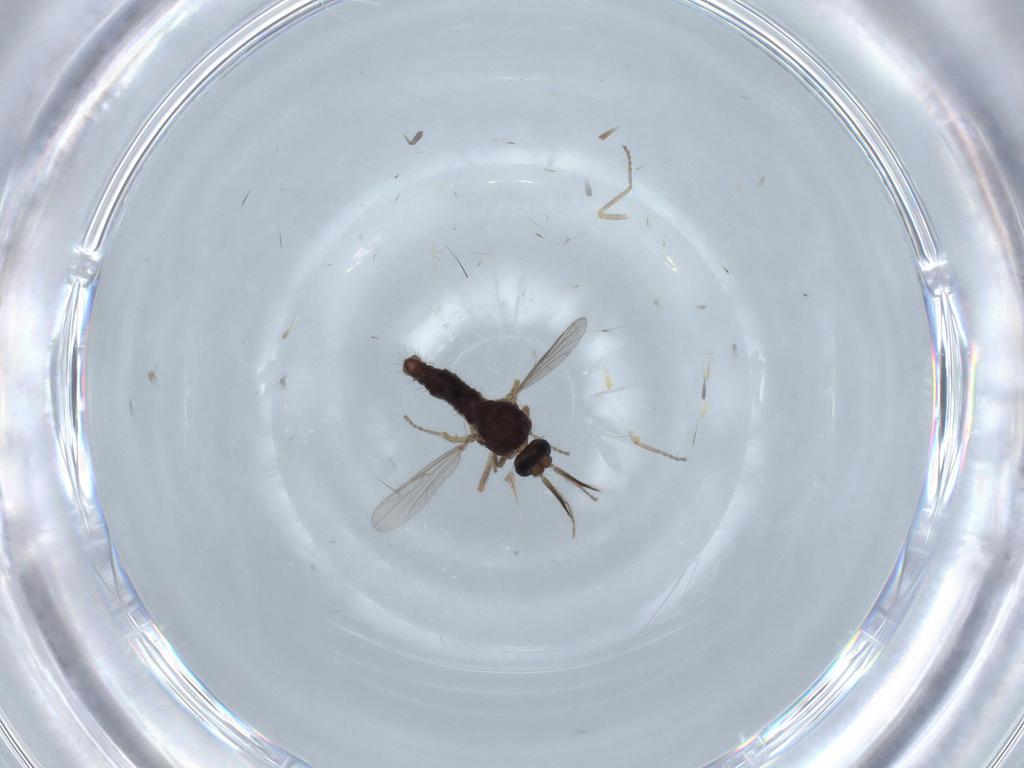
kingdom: Animalia
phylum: Arthropoda
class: Insecta
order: Diptera
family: Ceratopogonidae
